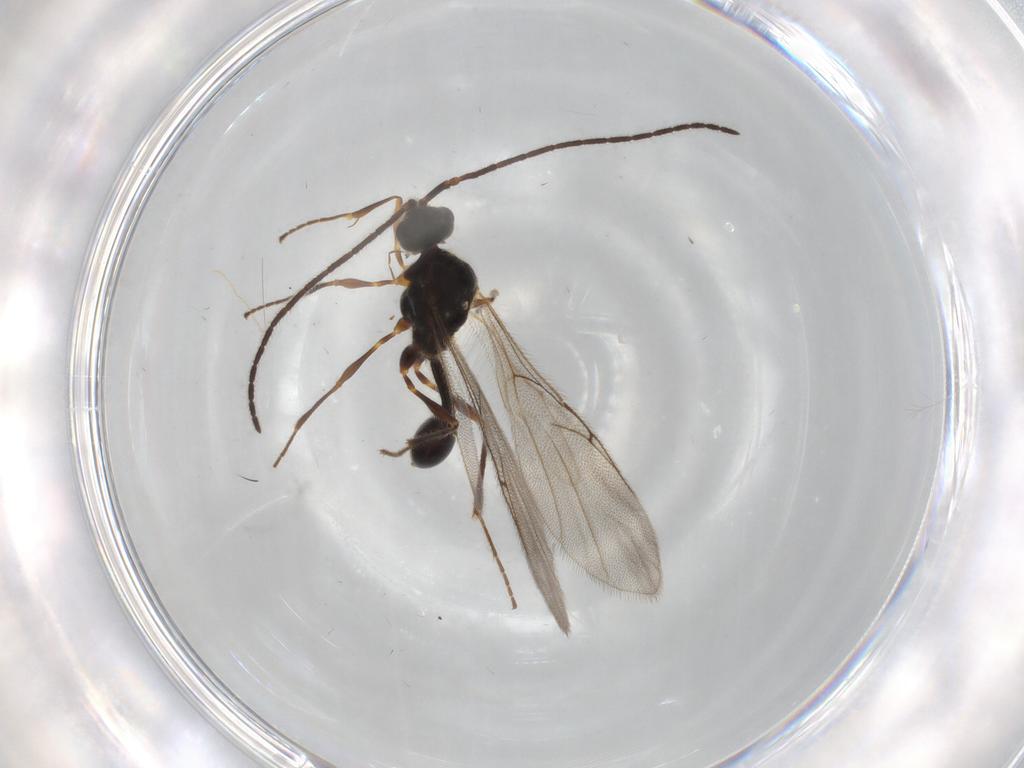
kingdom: Animalia
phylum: Arthropoda
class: Insecta
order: Hymenoptera
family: Diapriidae
